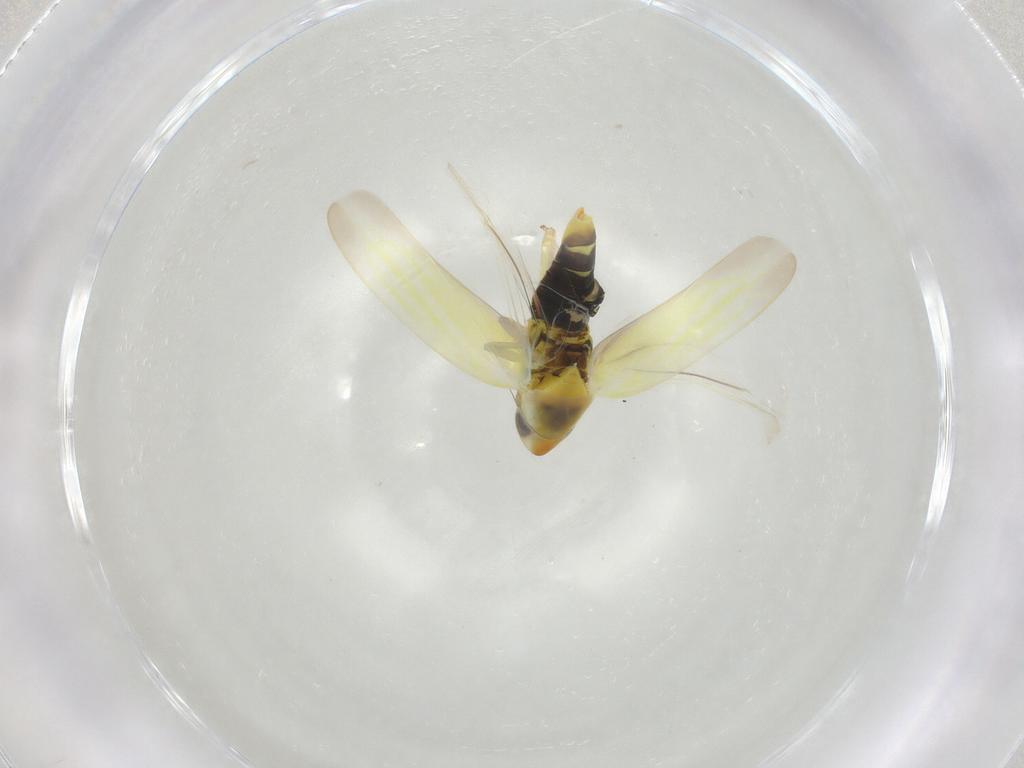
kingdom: Animalia
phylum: Arthropoda
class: Insecta
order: Hemiptera
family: Cicadellidae
